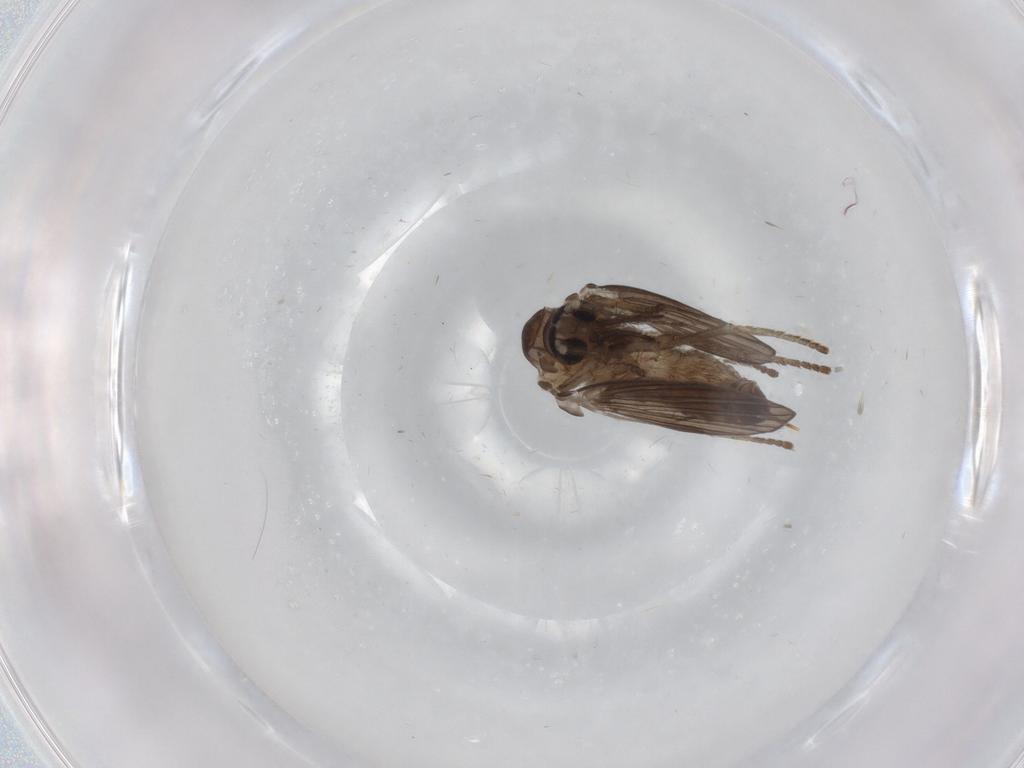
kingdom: Animalia
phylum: Arthropoda
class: Insecta
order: Diptera
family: Psychodidae
